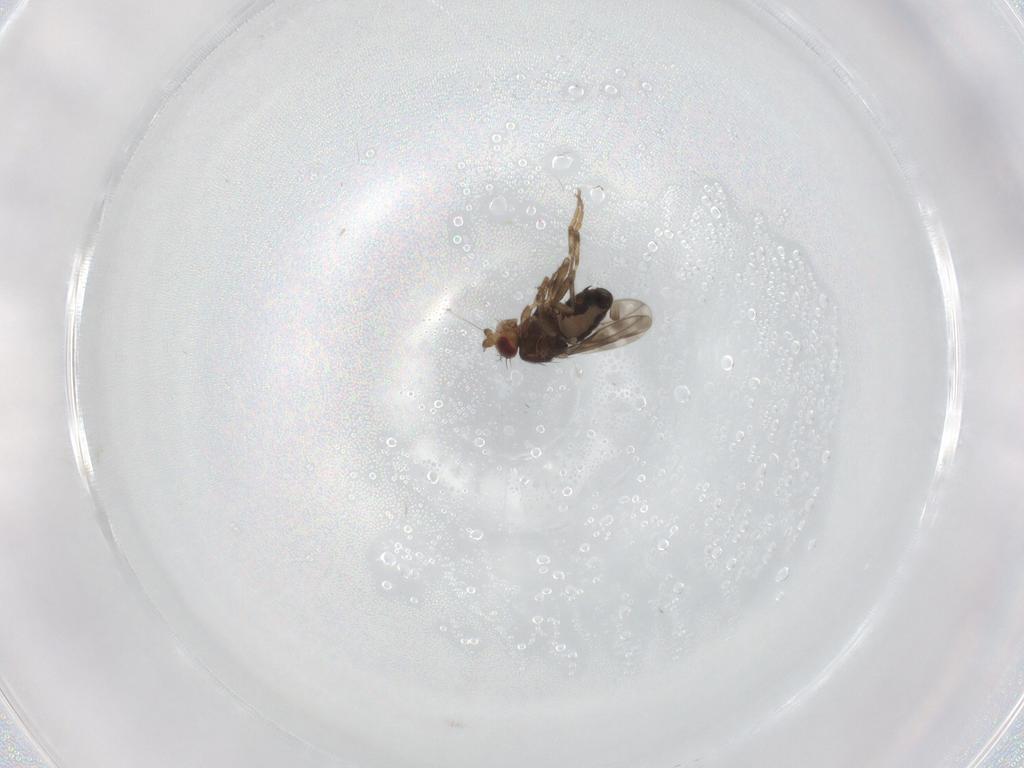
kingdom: Animalia
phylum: Arthropoda
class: Insecta
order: Diptera
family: Sphaeroceridae
